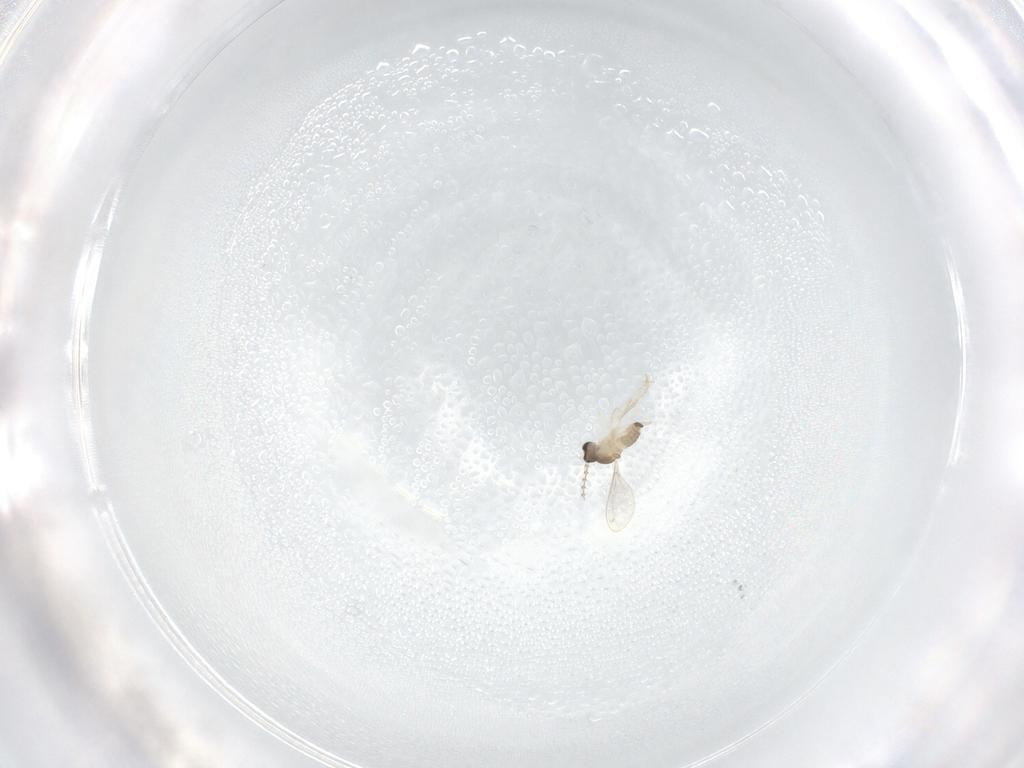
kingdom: Animalia
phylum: Arthropoda
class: Insecta
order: Diptera
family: Cecidomyiidae
